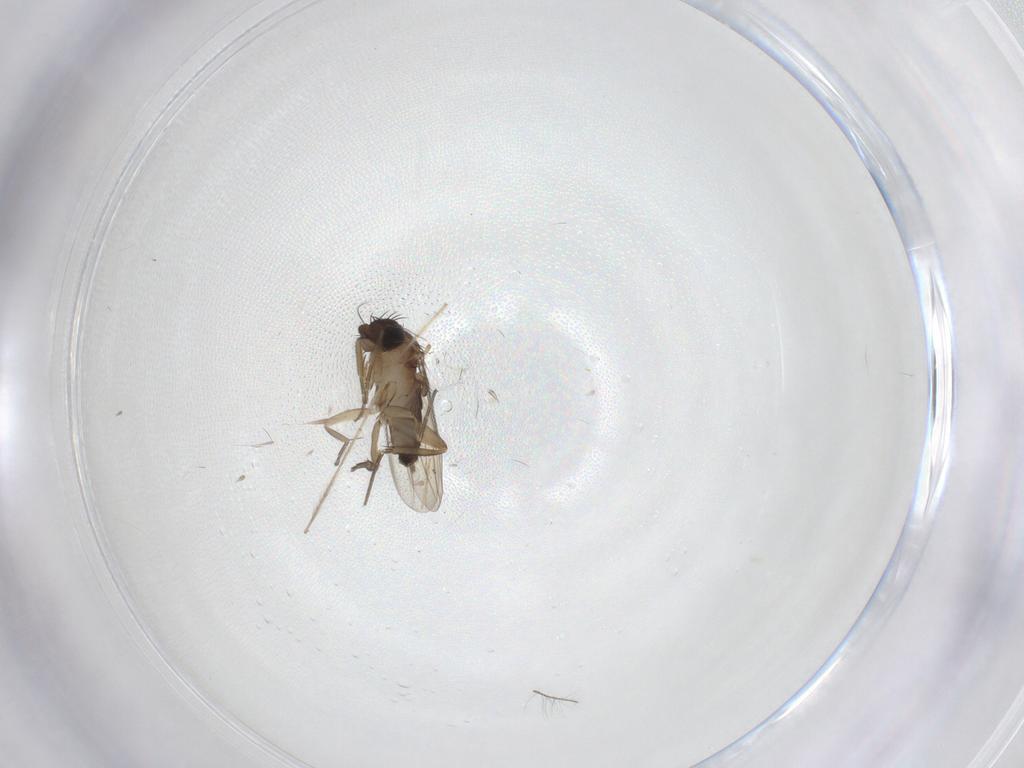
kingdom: Animalia
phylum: Arthropoda
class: Insecta
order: Diptera
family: Phoridae
